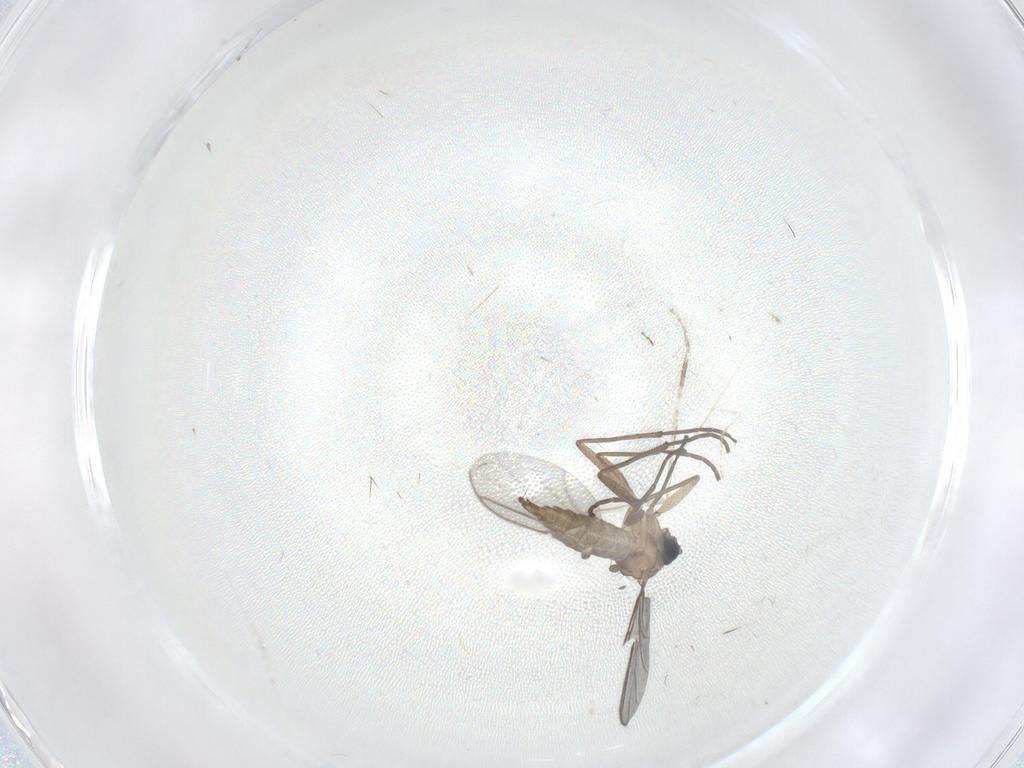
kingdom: Animalia
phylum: Arthropoda
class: Insecta
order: Diptera
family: Sciaridae
